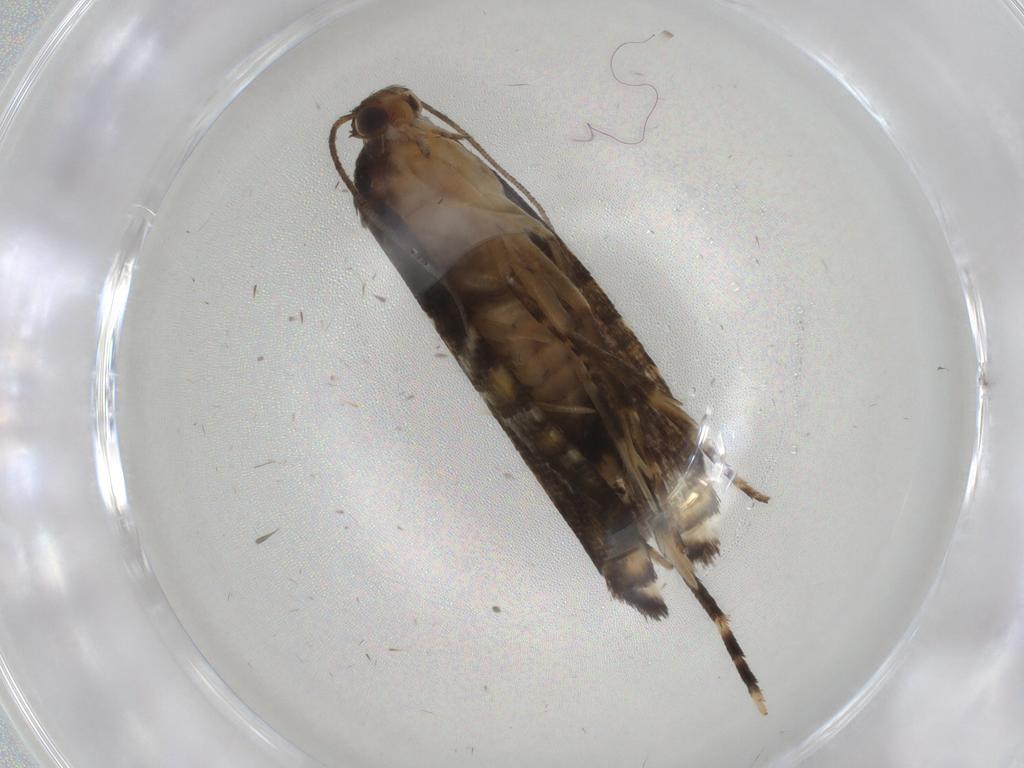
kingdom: Animalia
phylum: Arthropoda
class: Insecta
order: Lepidoptera
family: Glyphipterigidae
